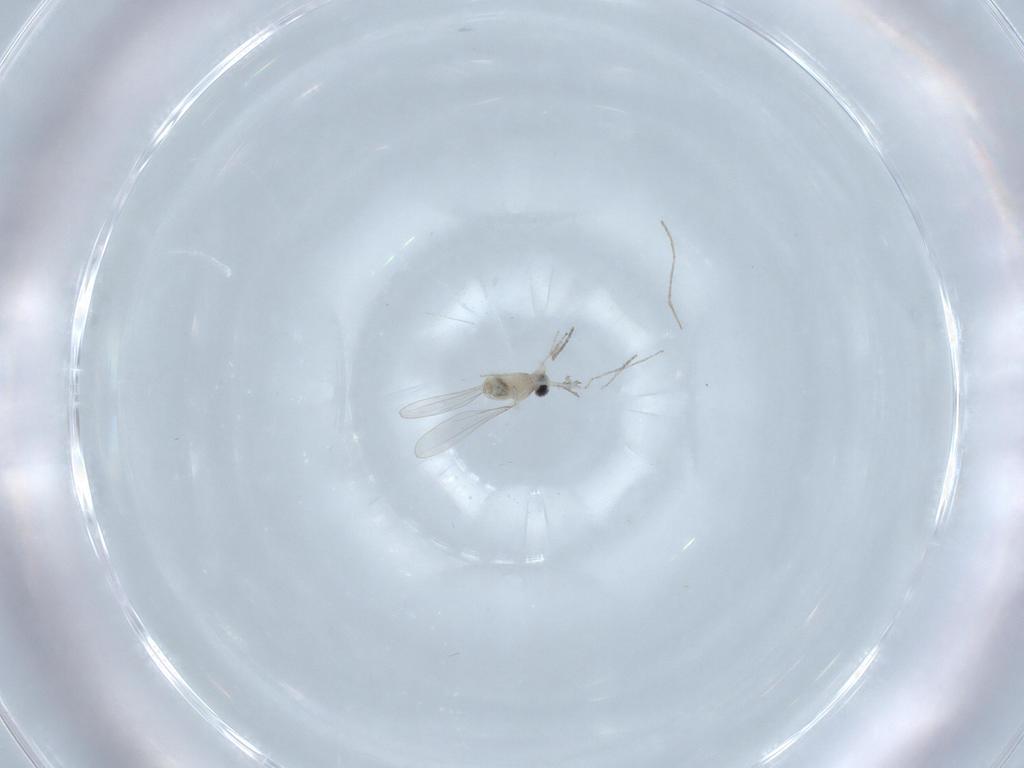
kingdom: Animalia
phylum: Arthropoda
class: Insecta
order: Diptera
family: Cecidomyiidae
